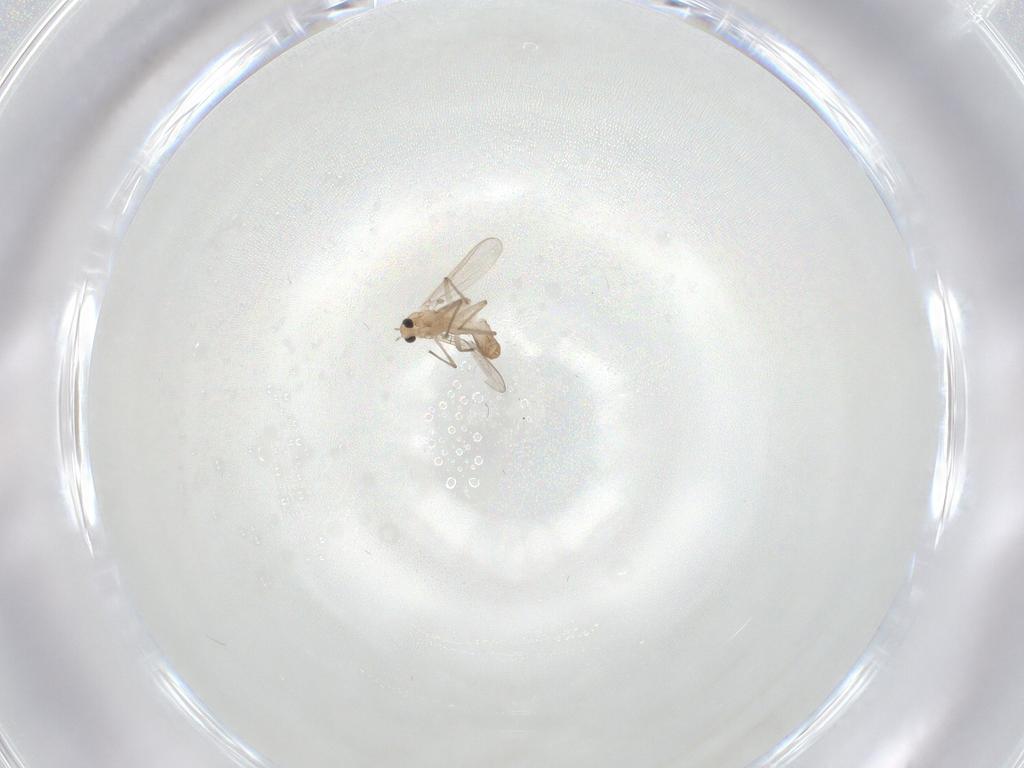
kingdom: Animalia
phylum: Arthropoda
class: Insecta
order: Diptera
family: Chironomidae
